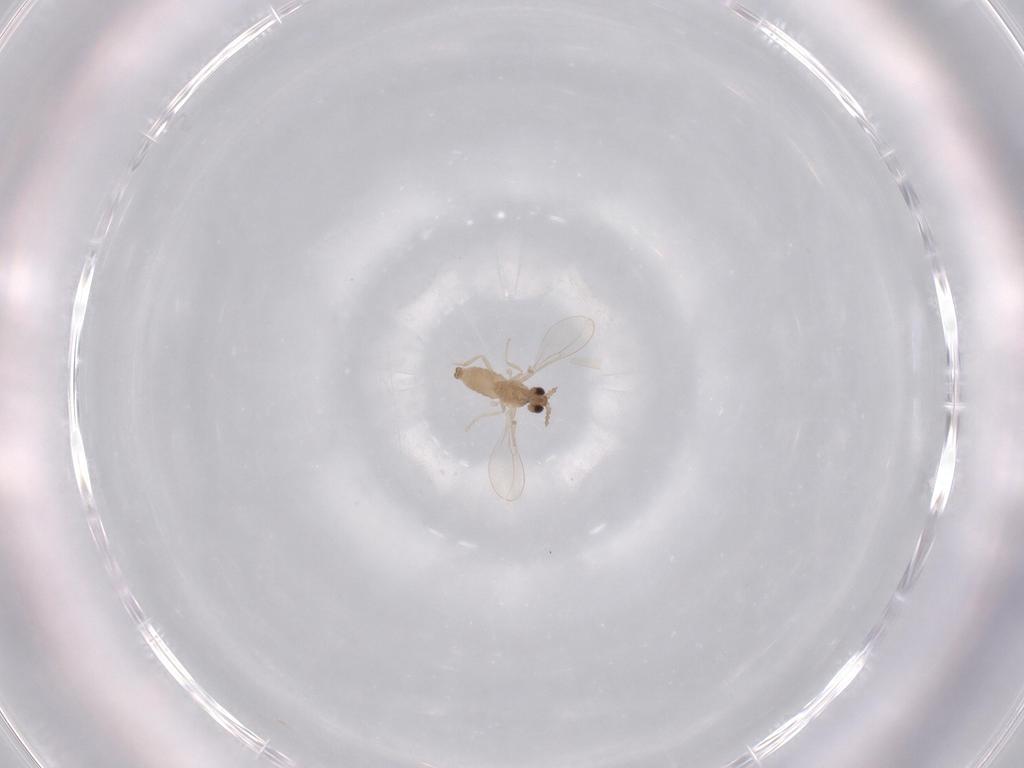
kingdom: Animalia
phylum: Arthropoda
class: Insecta
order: Diptera
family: Cecidomyiidae
